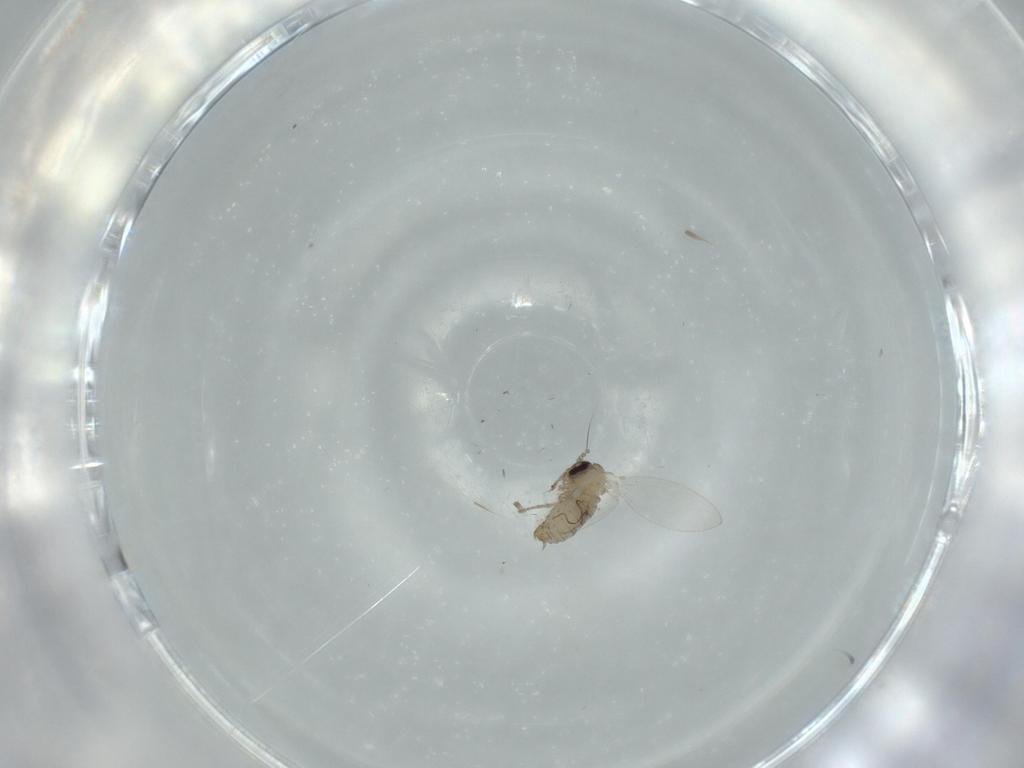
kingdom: Animalia
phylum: Arthropoda
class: Insecta
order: Diptera
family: Psychodidae
